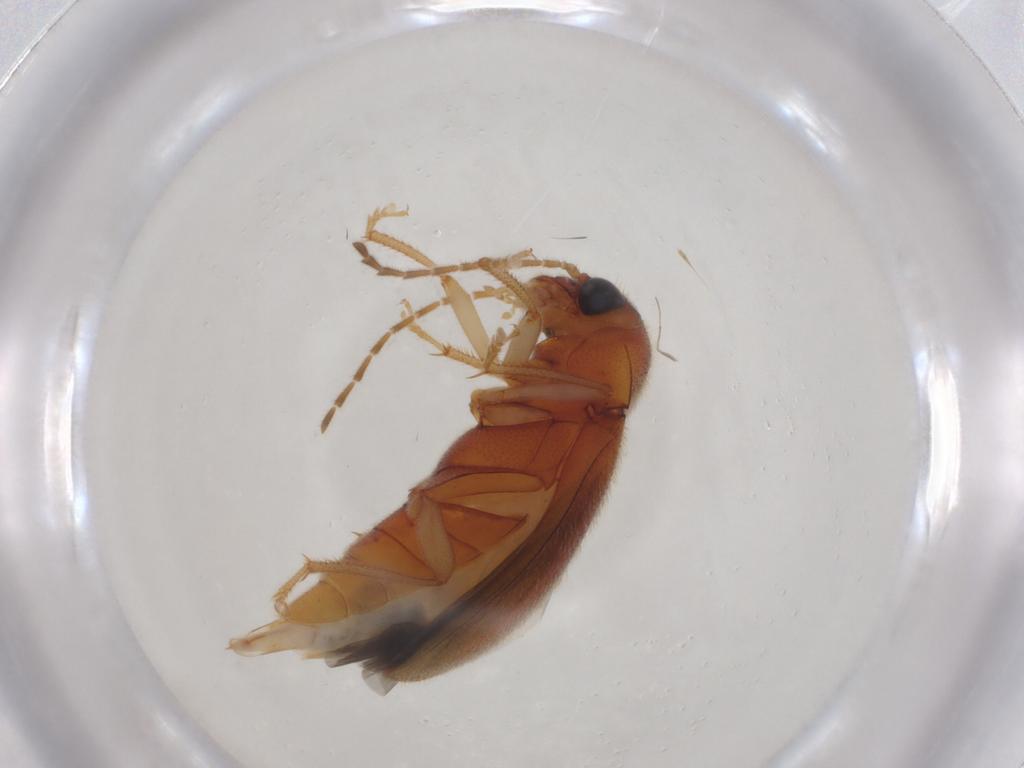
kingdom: Animalia
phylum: Arthropoda
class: Insecta
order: Coleoptera
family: Ptilodactylidae
